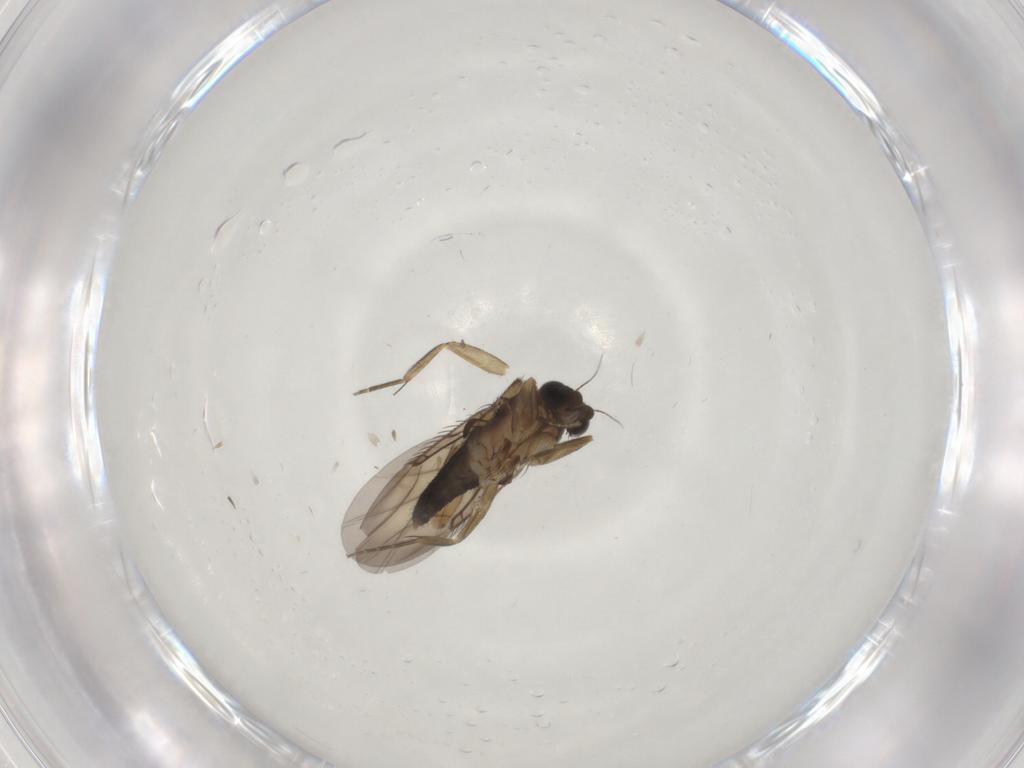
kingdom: Animalia
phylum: Arthropoda
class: Insecta
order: Diptera
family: Phoridae
